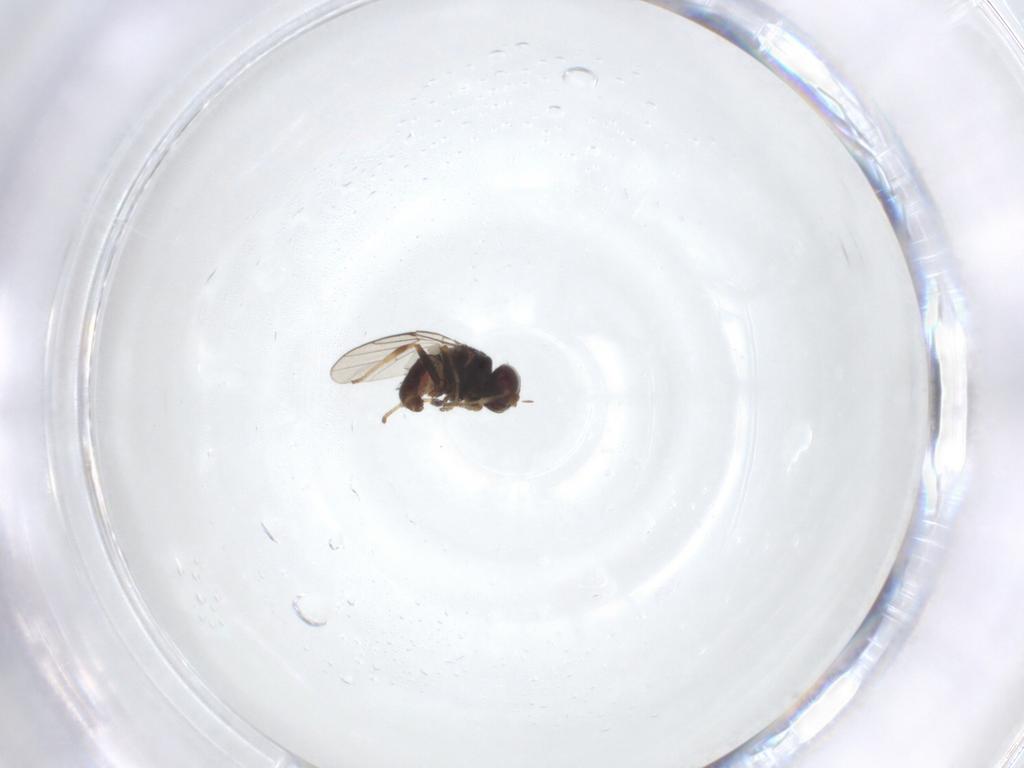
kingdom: Animalia
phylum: Arthropoda
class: Insecta
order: Diptera
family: Chloropidae
